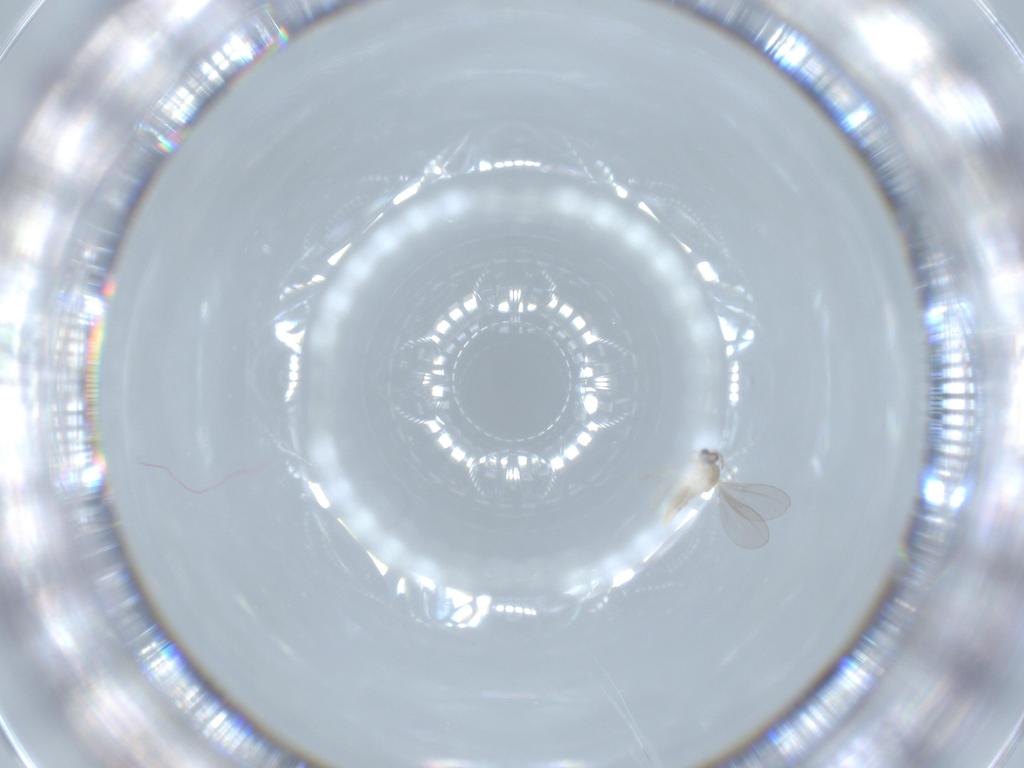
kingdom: Animalia
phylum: Arthropoda
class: Insecta
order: Diptera
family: Cecidomyiidae
